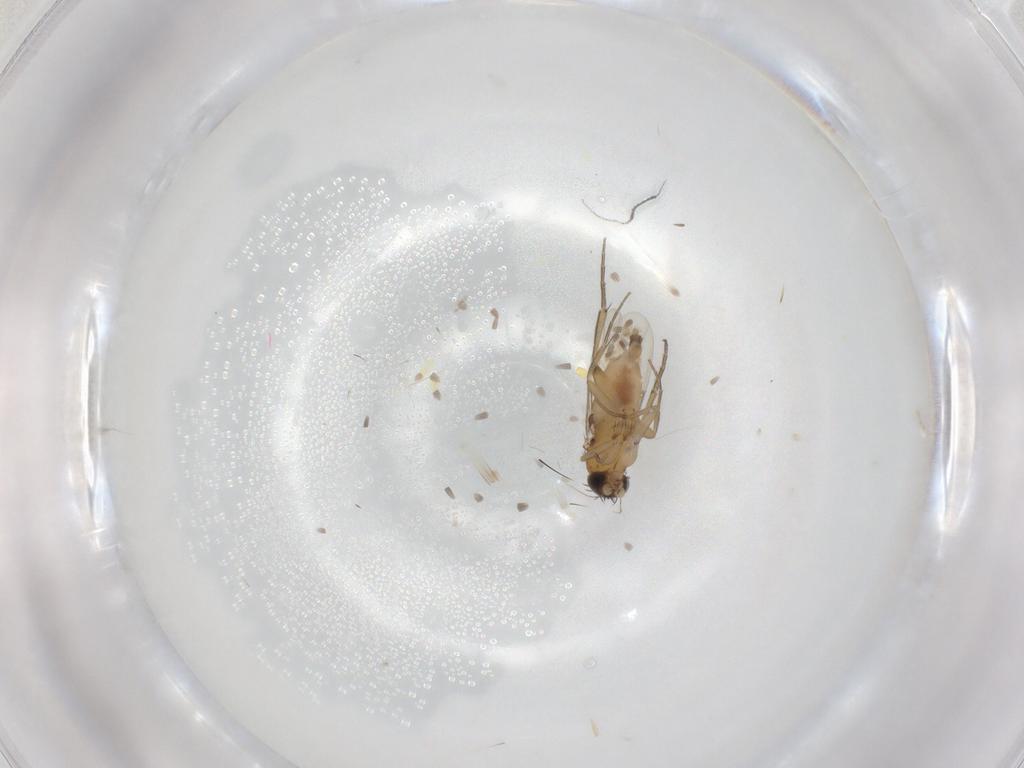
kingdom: Animalia
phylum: Arthropoda
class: Insecta
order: Diptera
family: Phoridae
